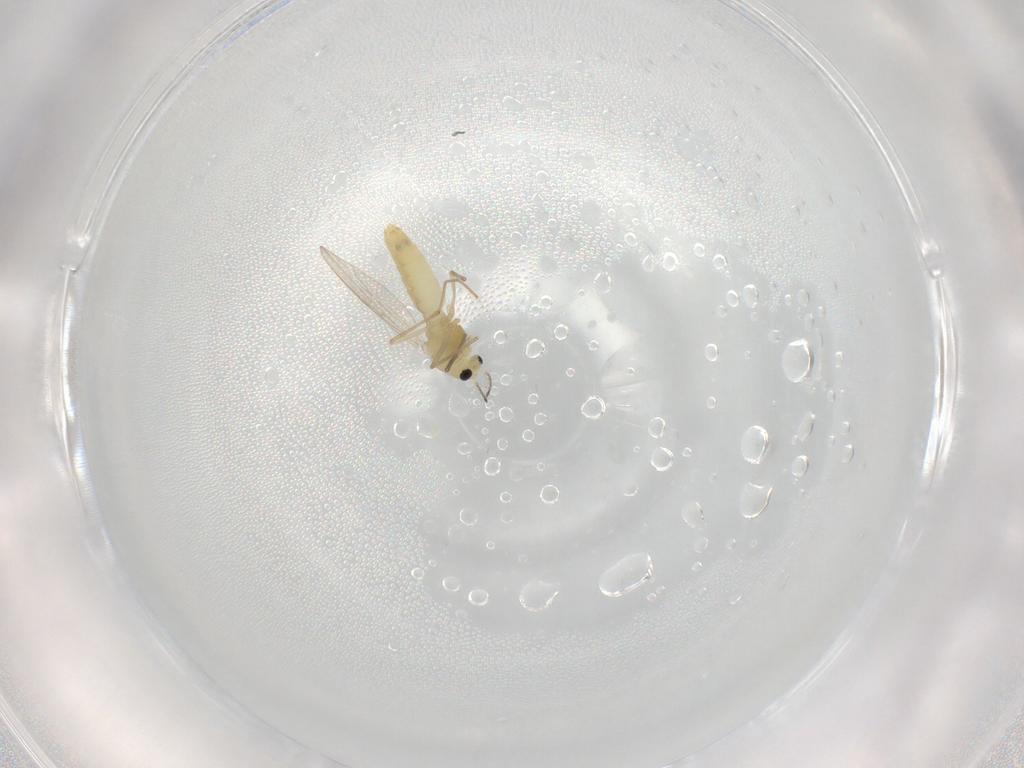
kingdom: Animalia
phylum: Arthropoda
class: Insecta
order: Diptera
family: Chironomidae
